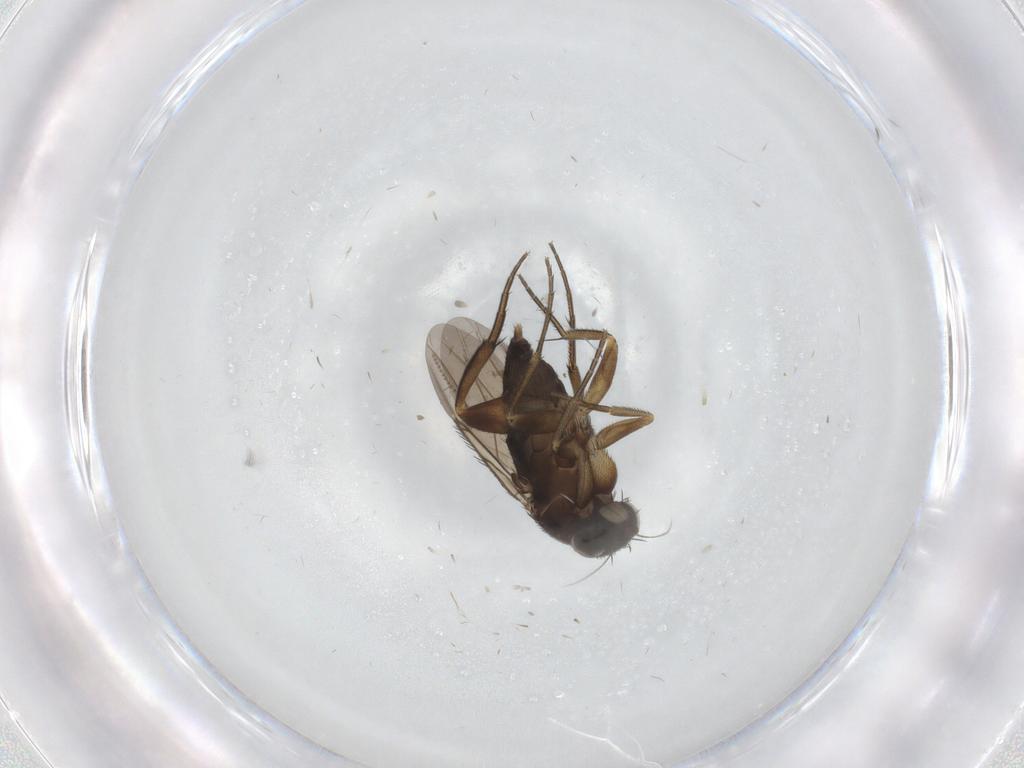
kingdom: Animalia
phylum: Arthropoda
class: Insecta
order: Diptera
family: Phoridae
